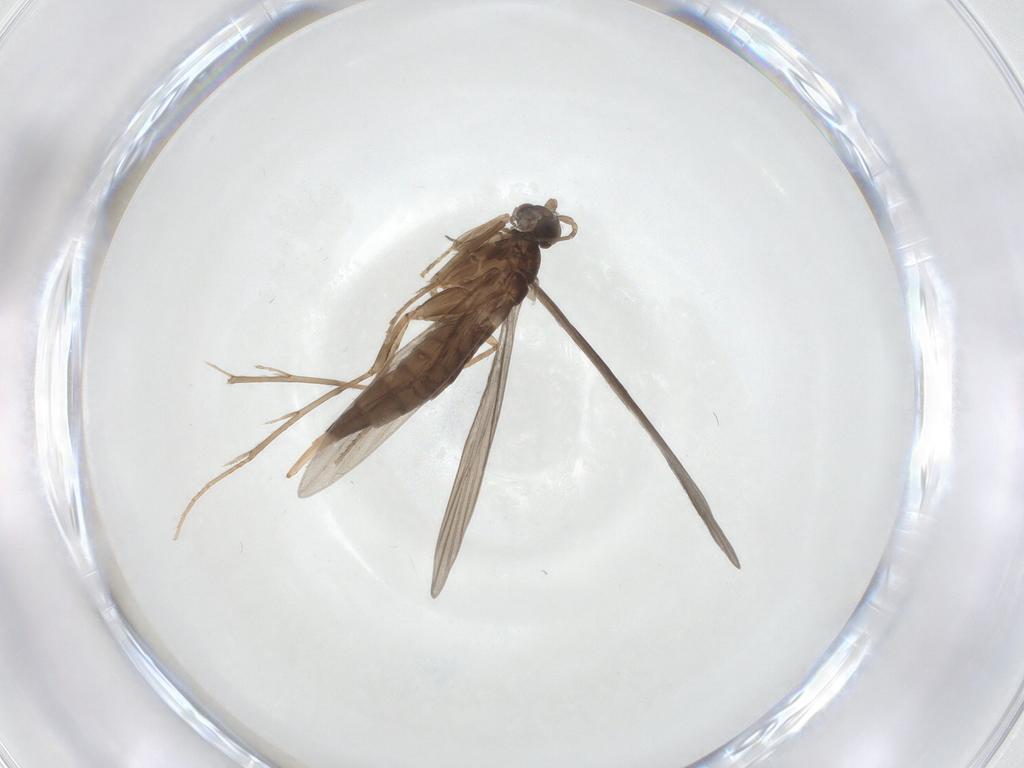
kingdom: Animalia
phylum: Arthropoda
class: Insecta
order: Trichoptera
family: Xiphocentronidae
